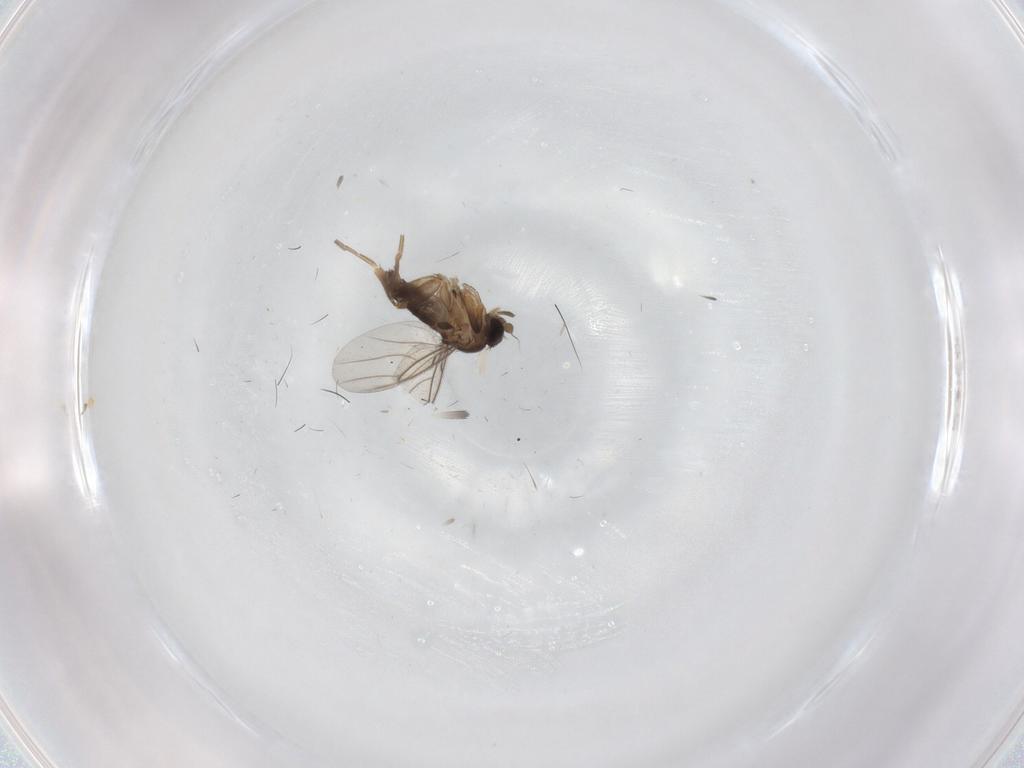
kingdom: Animalia
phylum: Arthropoda
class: Insecta
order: Diptera
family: Phoridae
